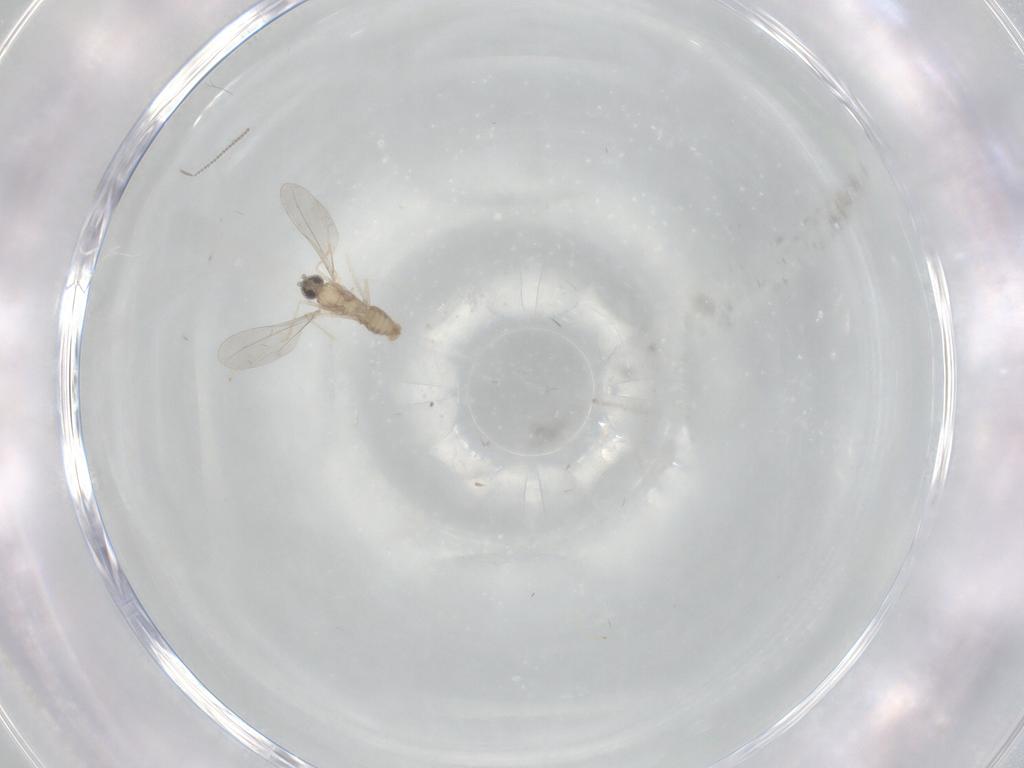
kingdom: Animalia
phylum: Arthropoda
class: Insecta
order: Diptera
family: Cecidomyiidae
